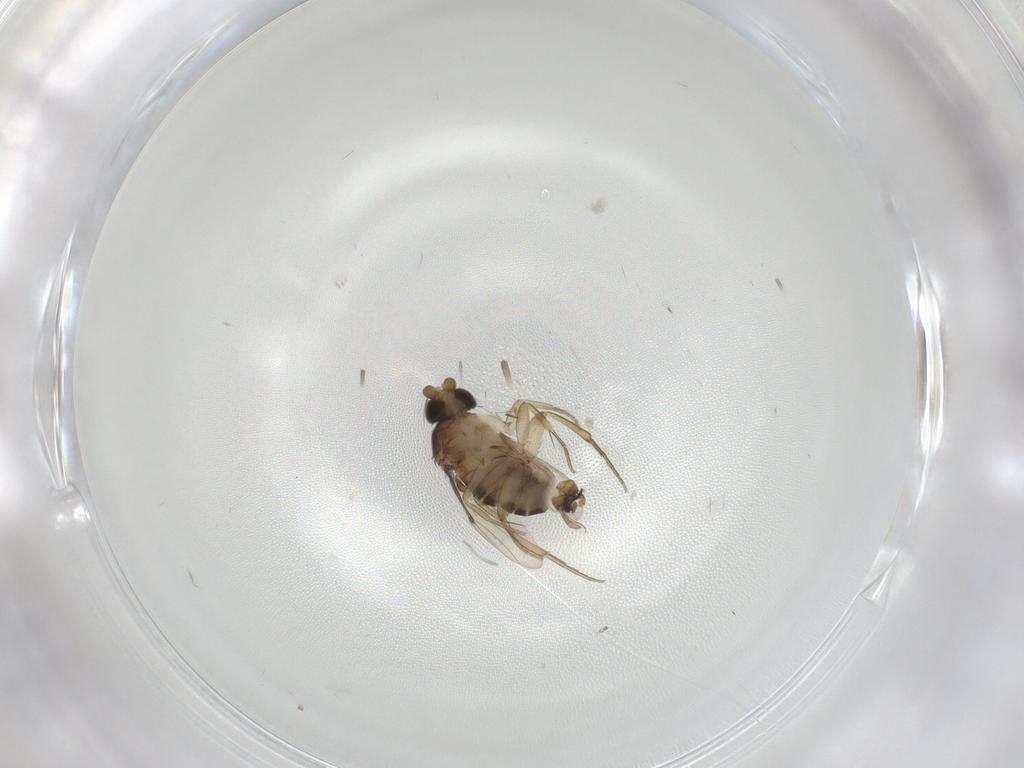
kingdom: Animalia
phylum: Arthropoda
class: Insecta
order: Diptera
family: Cecidomyiidae
